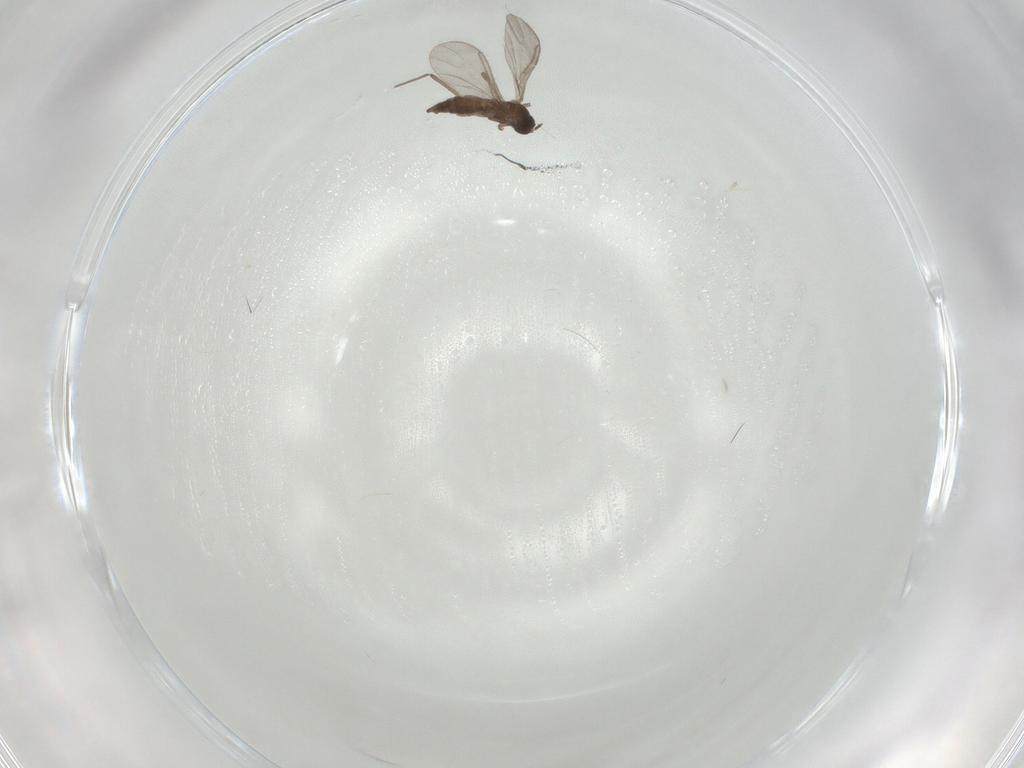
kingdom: Animalia
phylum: Arthropoda
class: Insecta
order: Diptera
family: Sciaridae
